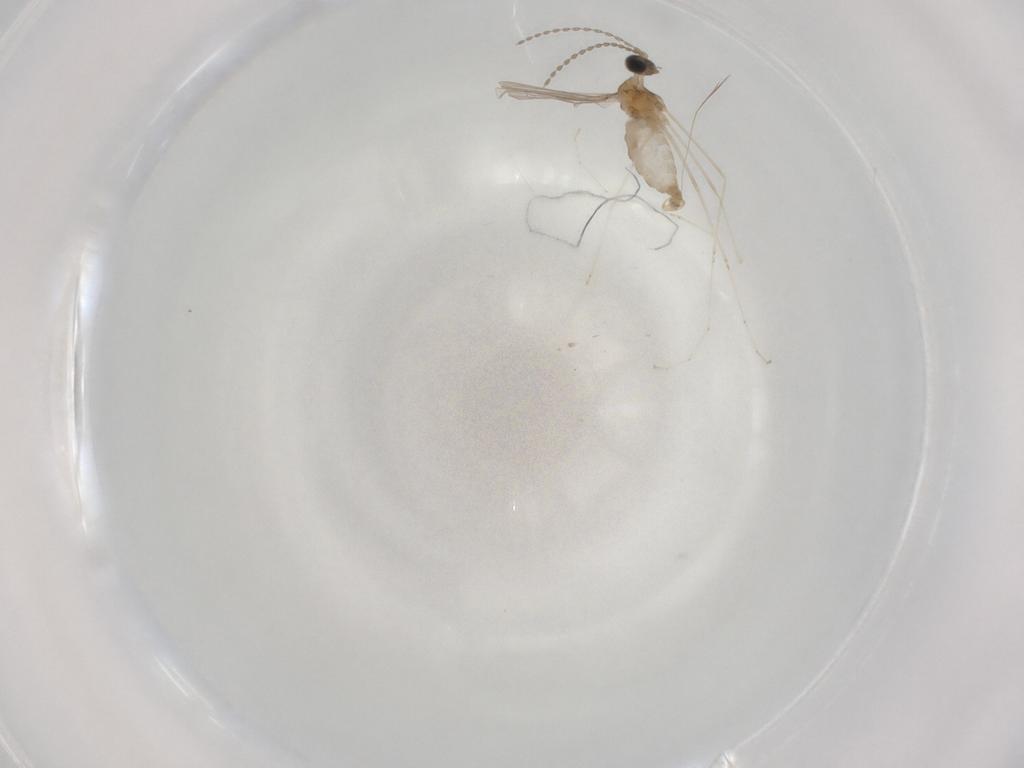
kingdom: Animalia
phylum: Arthropoda
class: Insecta
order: Diptera
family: Cecidomyiidae
